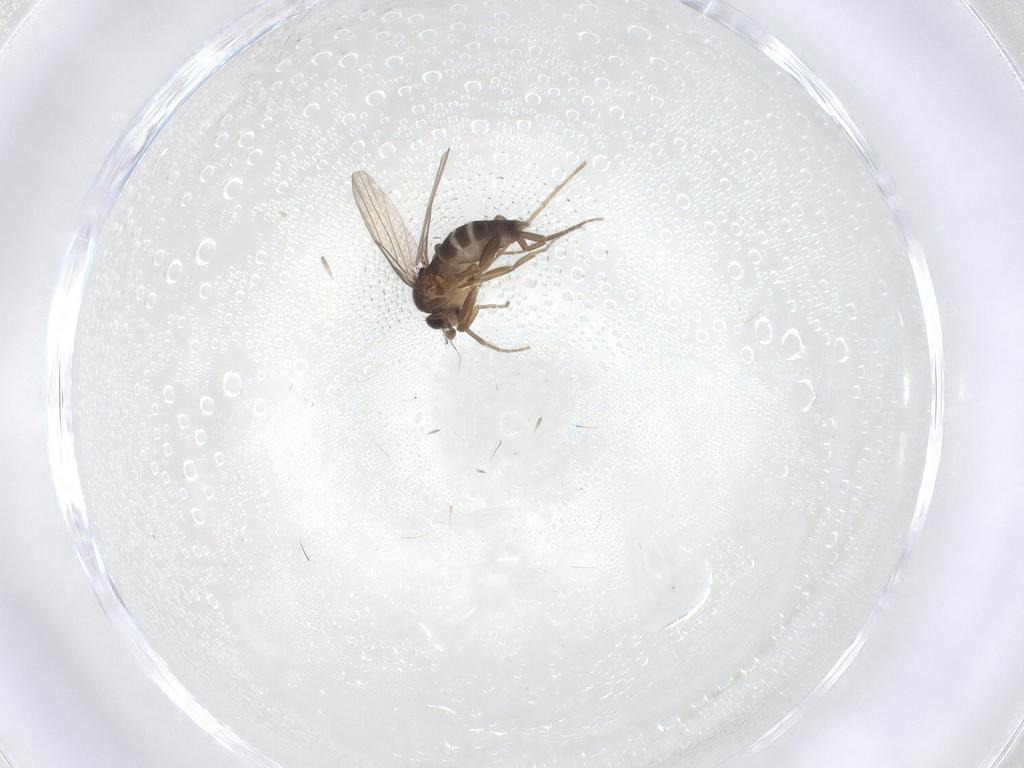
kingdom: Animalia
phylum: Arthropoda
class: Insecta
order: Diptera
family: Chironomidae
